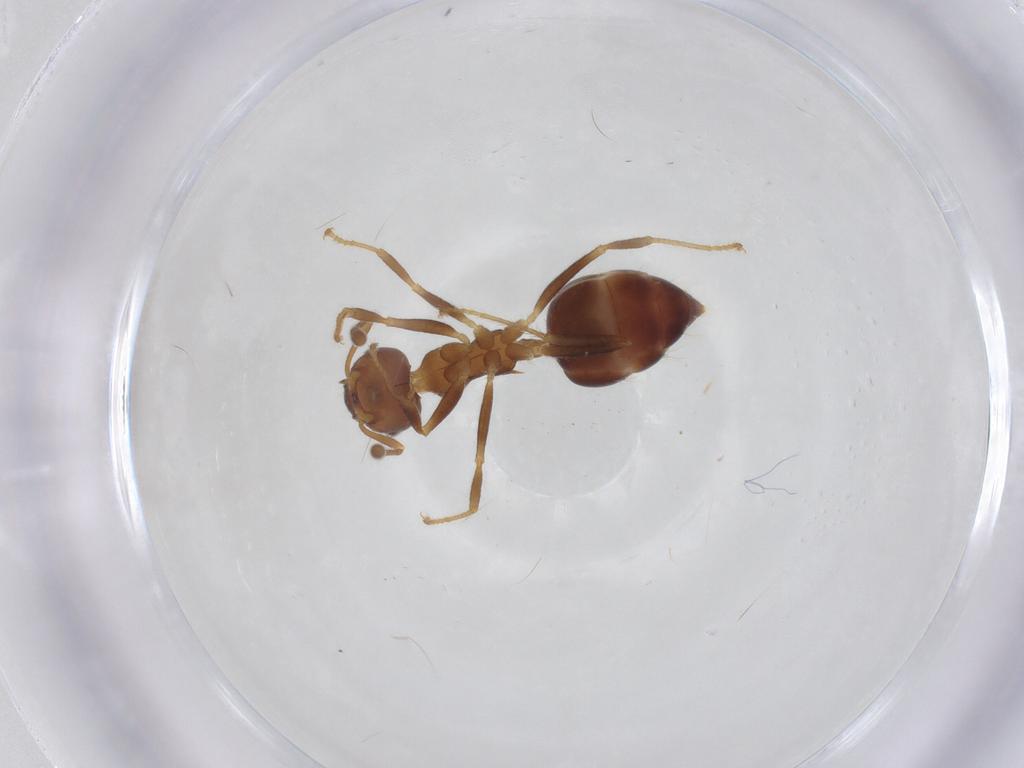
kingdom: Animalia
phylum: Arthropoda
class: Insecta
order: Hymenoptera
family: Formicidae
